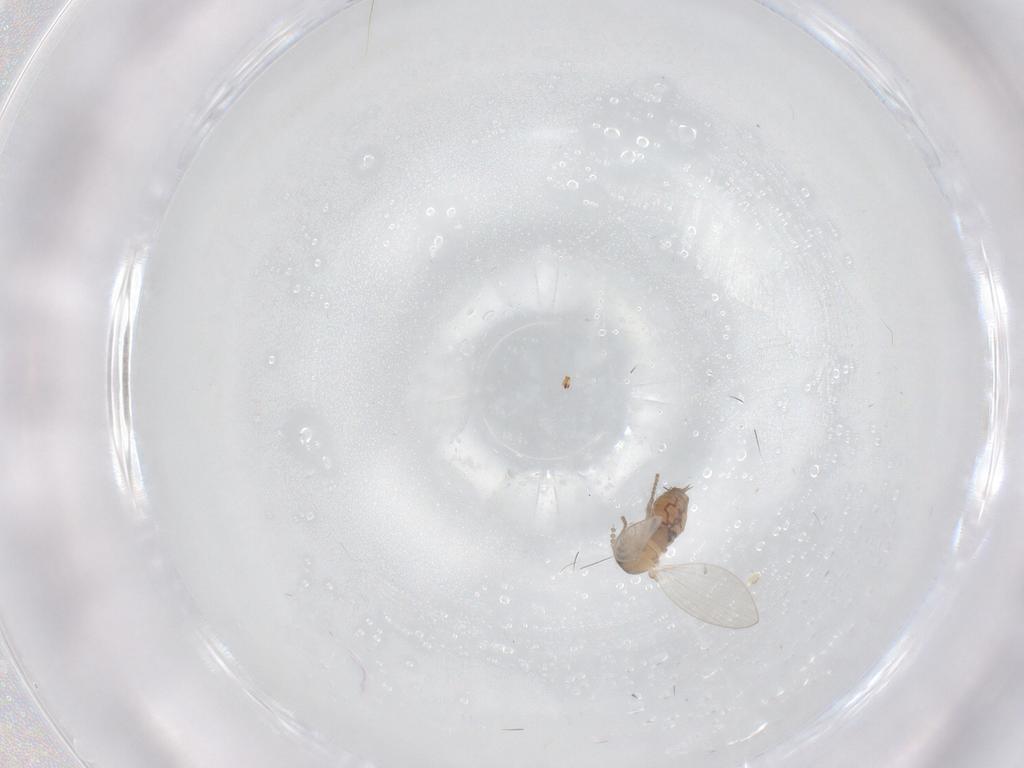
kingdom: Animalia
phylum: Arthropoda
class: Insecta
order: Diptera
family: Psychodidae
